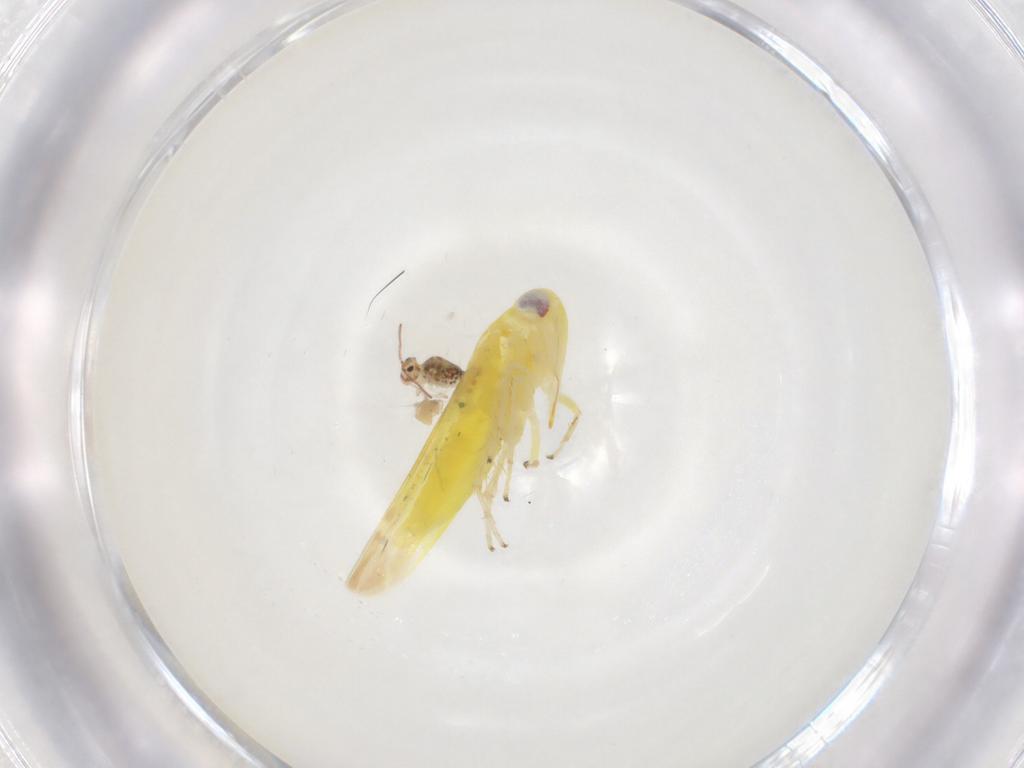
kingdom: Animalia
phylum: Arthropoda
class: Insecta
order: Hemiptera
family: Cicadellidae
